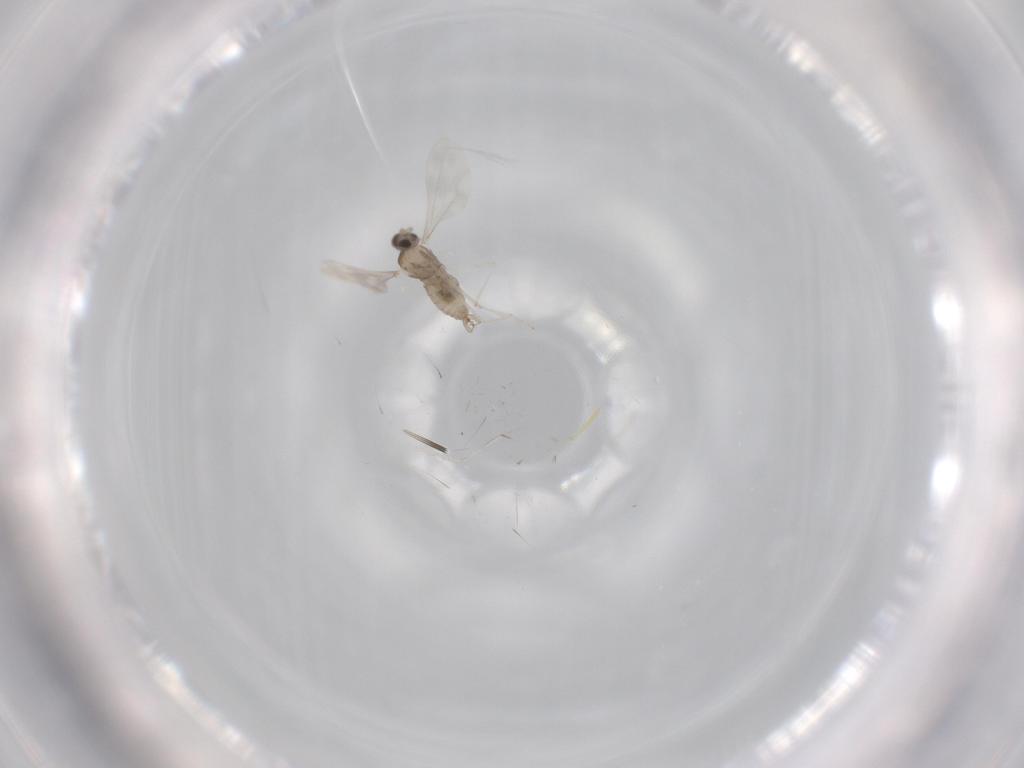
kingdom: Animalia
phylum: Arthropoda
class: Insecta
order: Diptera
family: Cecidomyiidae
